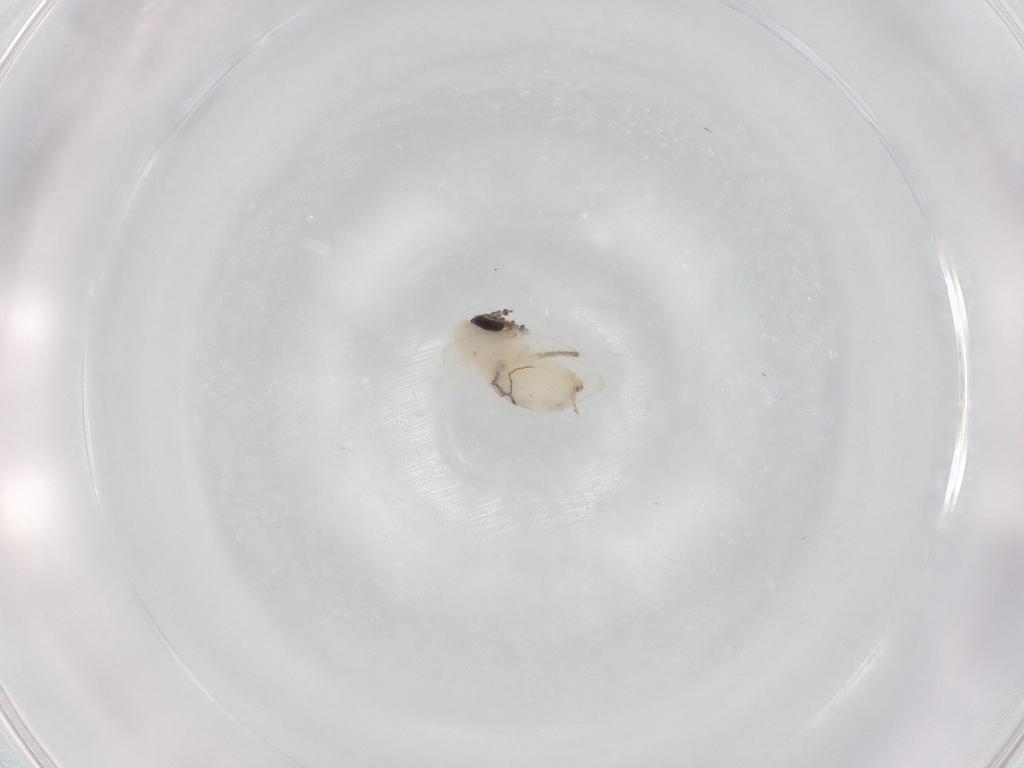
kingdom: Animalia
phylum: Arthropoda
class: Insecta
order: Diptera
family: Psychodidae
